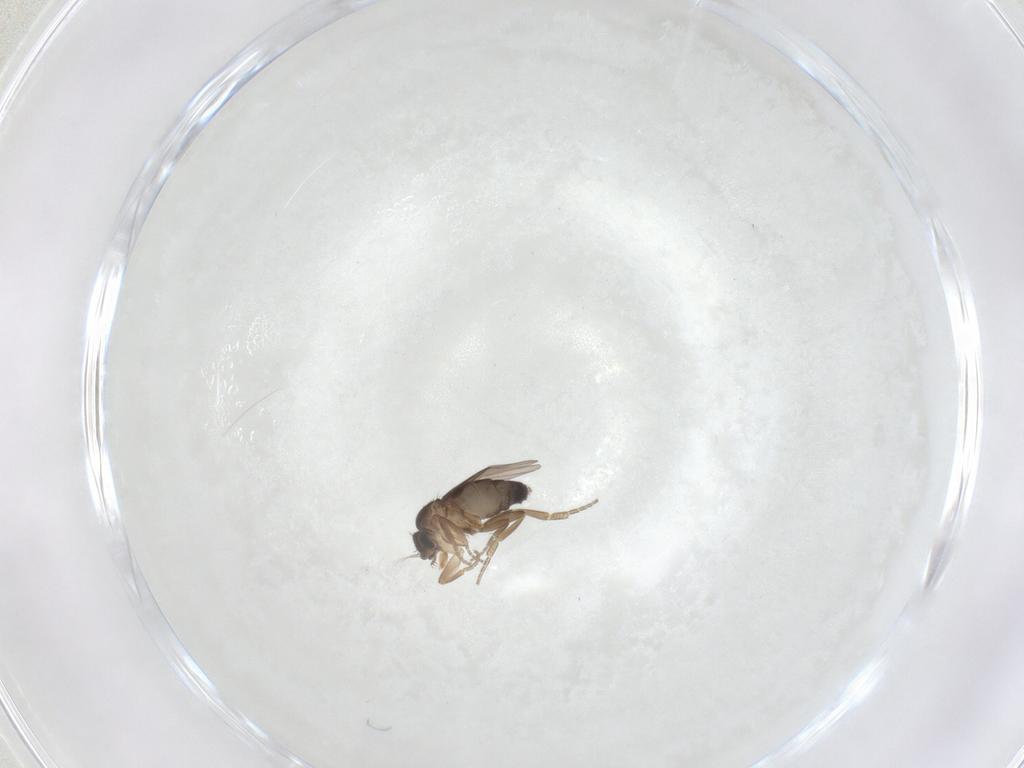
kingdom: Animalia
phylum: Arthropoda
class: Insecta
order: Diptera
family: Phoridae
